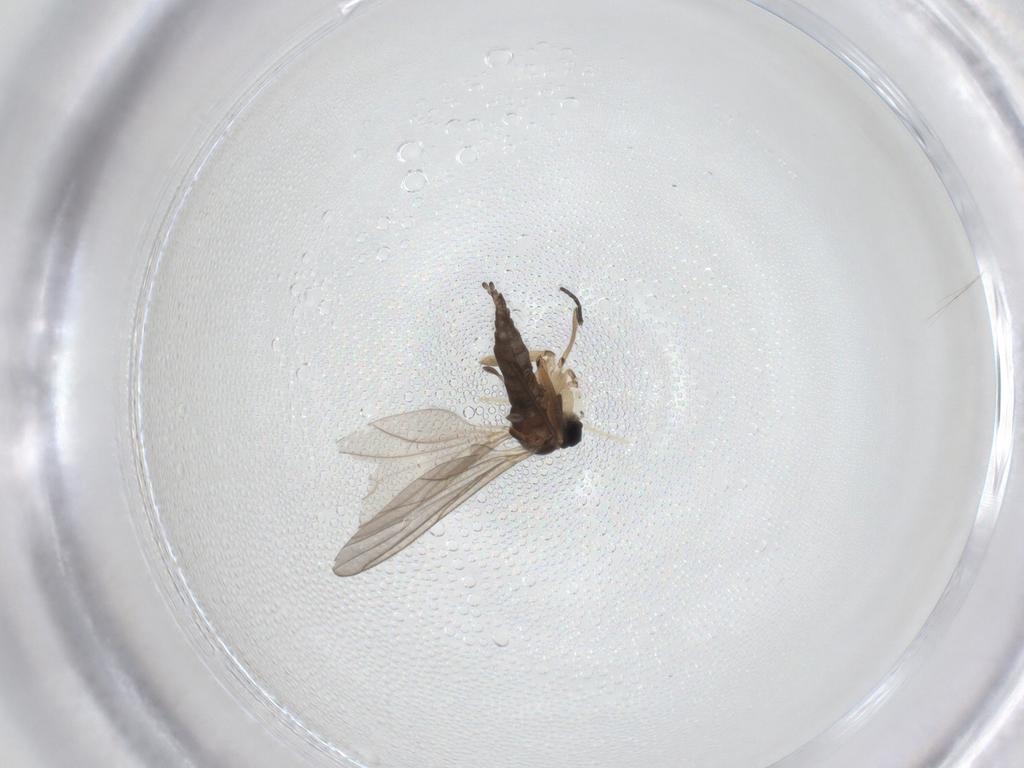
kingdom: Animalia
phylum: Arthropoda
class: Insecta
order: Diptera
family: Sciaridae
